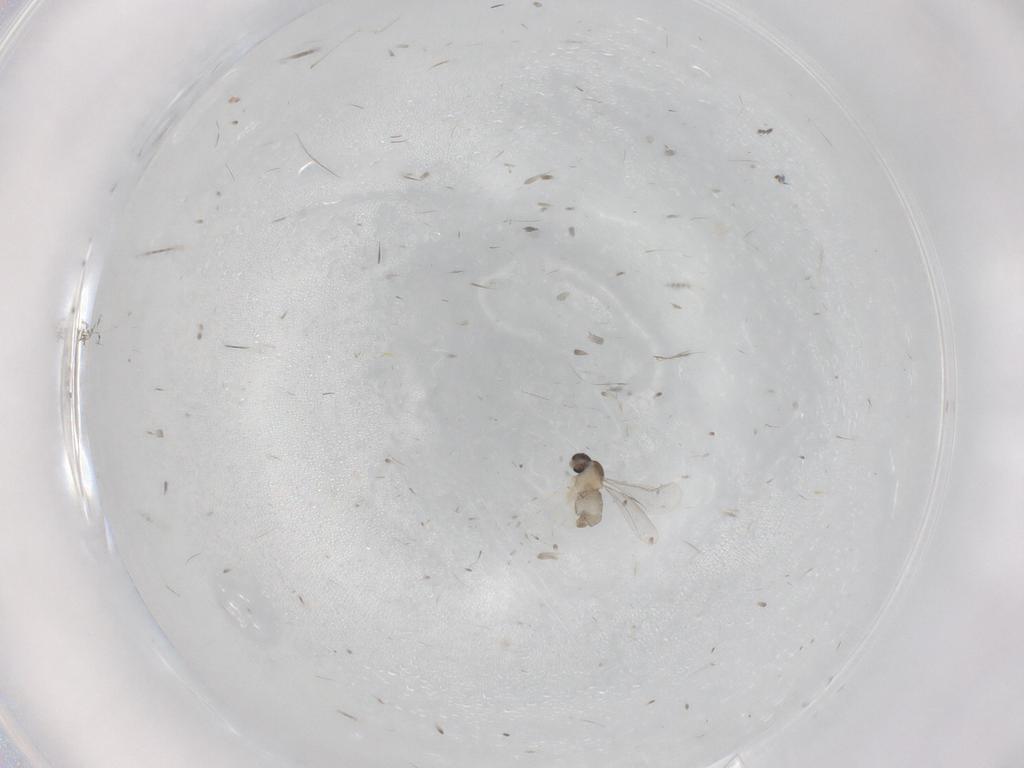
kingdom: Animalia
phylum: Arthropoda
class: Insecta
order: Diptera
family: Cecidomyiidae
